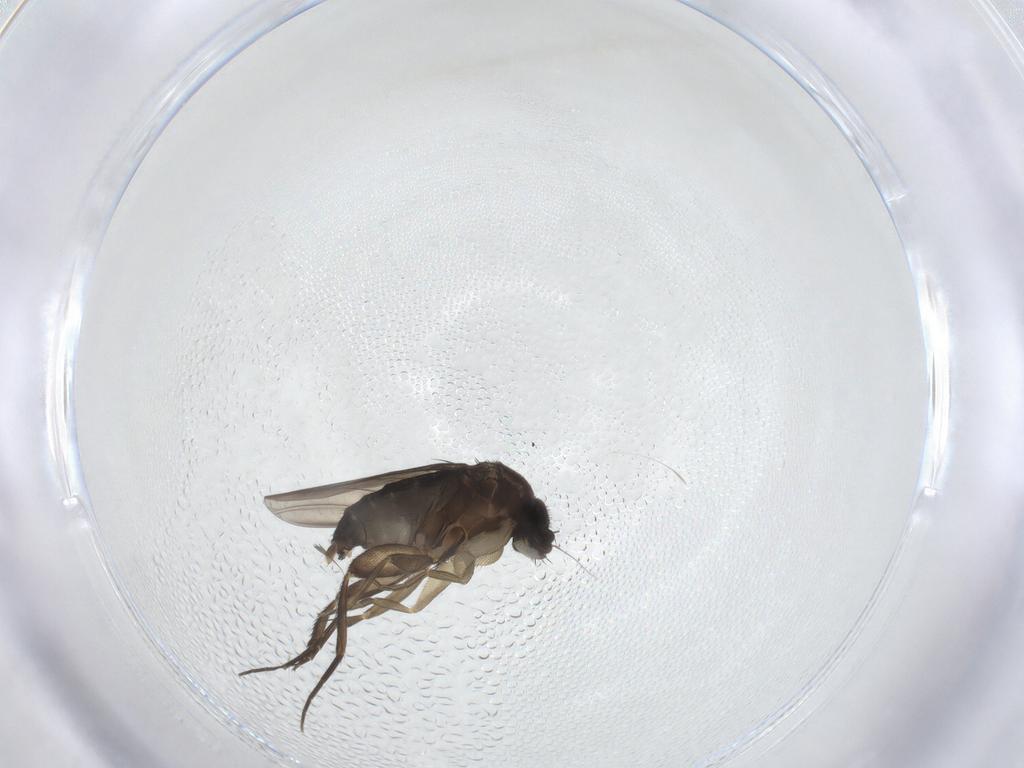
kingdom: Animalia
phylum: Arthropoda
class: Insecta
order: Diptera
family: Phoridae
